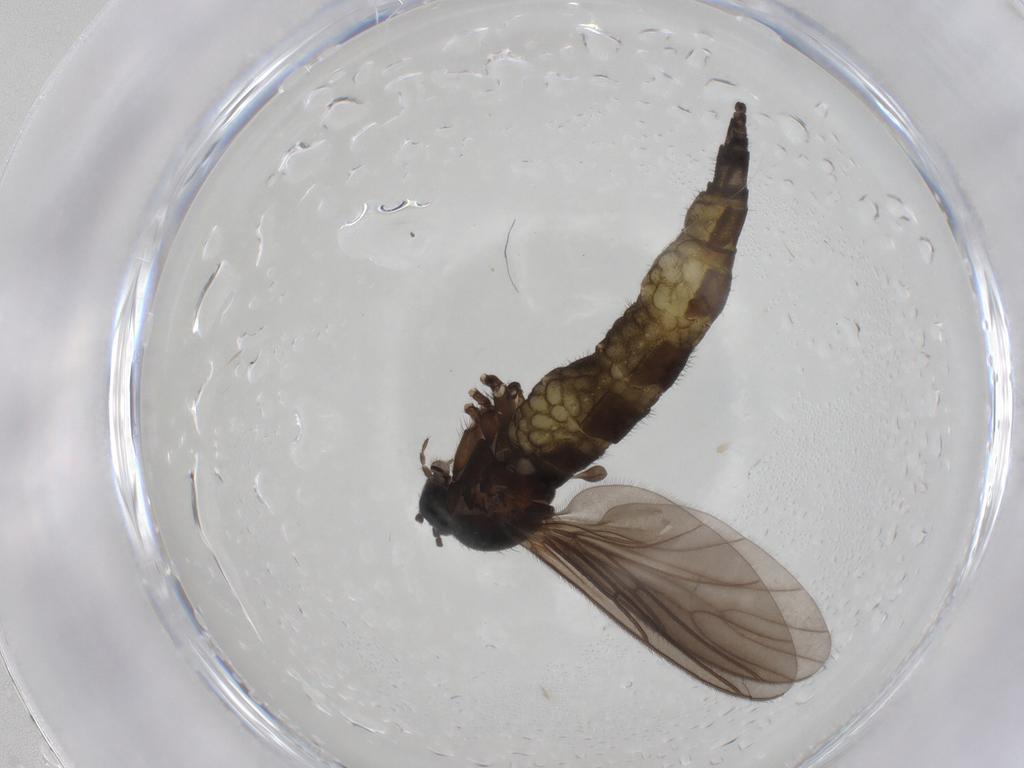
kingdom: Animalia
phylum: Arthropoda
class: Insecta
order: Diptera
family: Sciaridae
